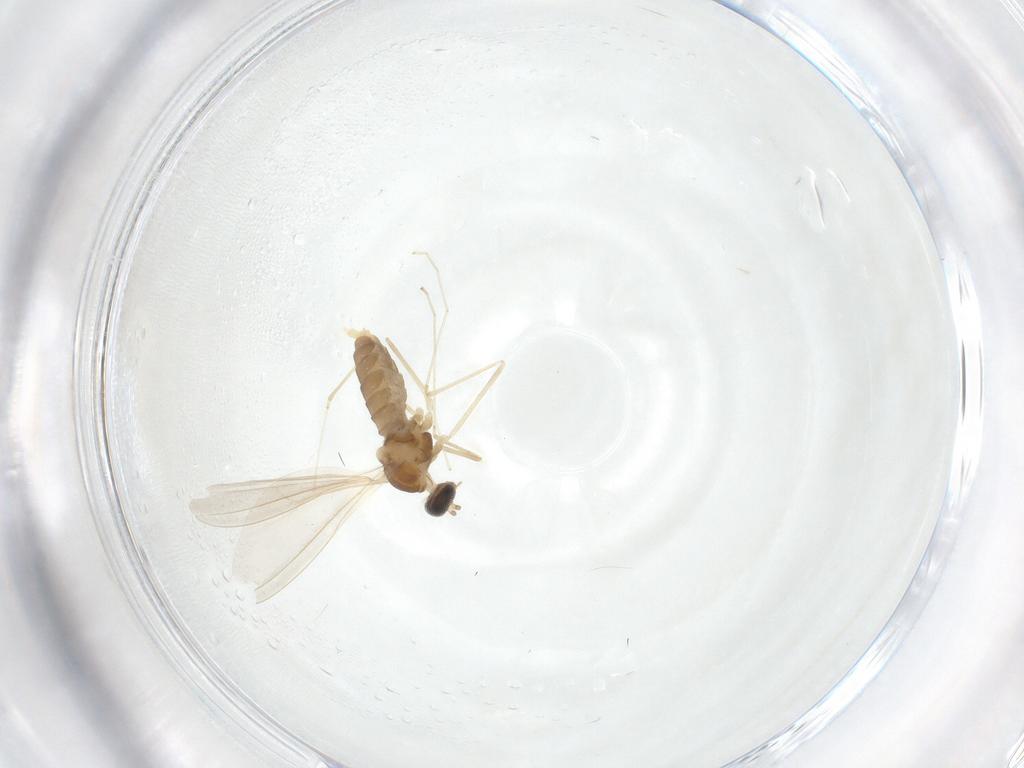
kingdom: Animalia
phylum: Arthropoda
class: Insecta
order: Diptera
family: Cecidomyiidae
